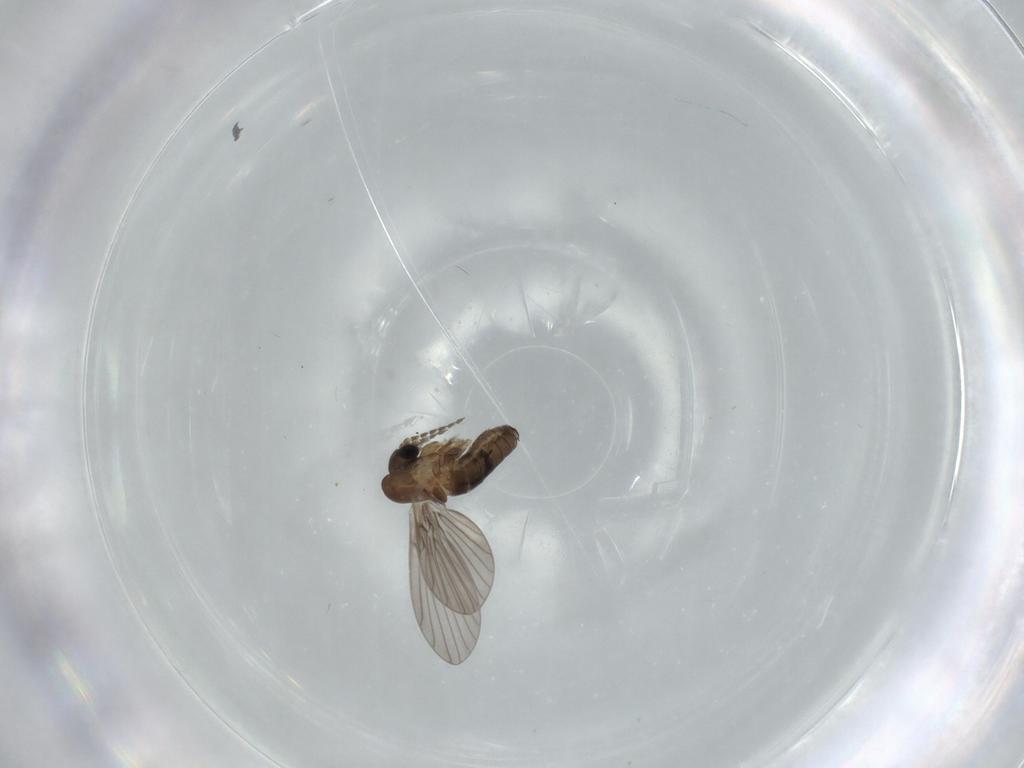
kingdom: Animalia
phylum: Arthropoda
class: Insecta
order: Diptera
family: Psychodidae
